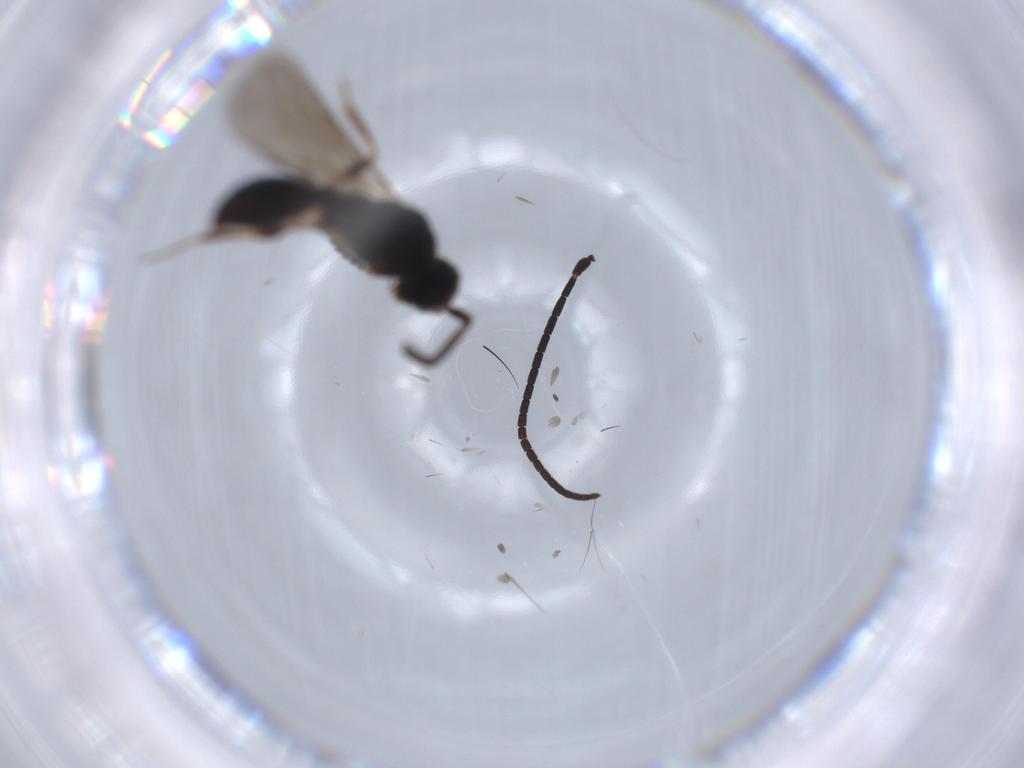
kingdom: Animalia
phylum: Arthropoda
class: Insecta
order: Hymenoptera
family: Ichneumonidae
